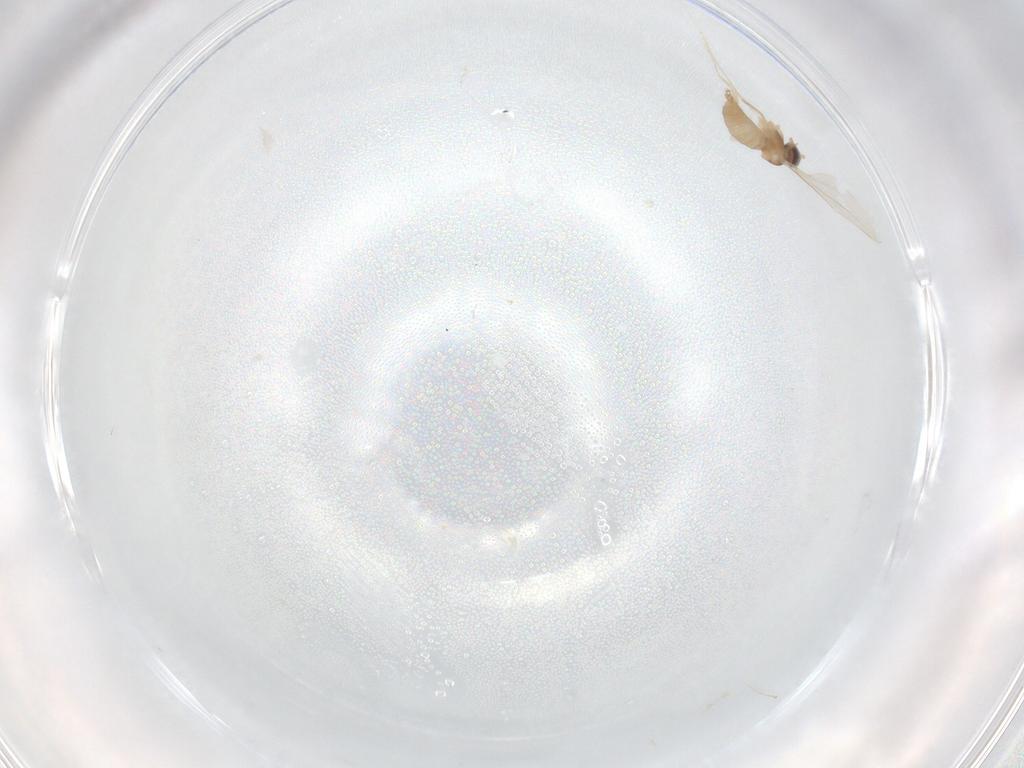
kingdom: Animalia
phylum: Arthropoda
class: Insecta
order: Diptera
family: Cecidomyiidae
